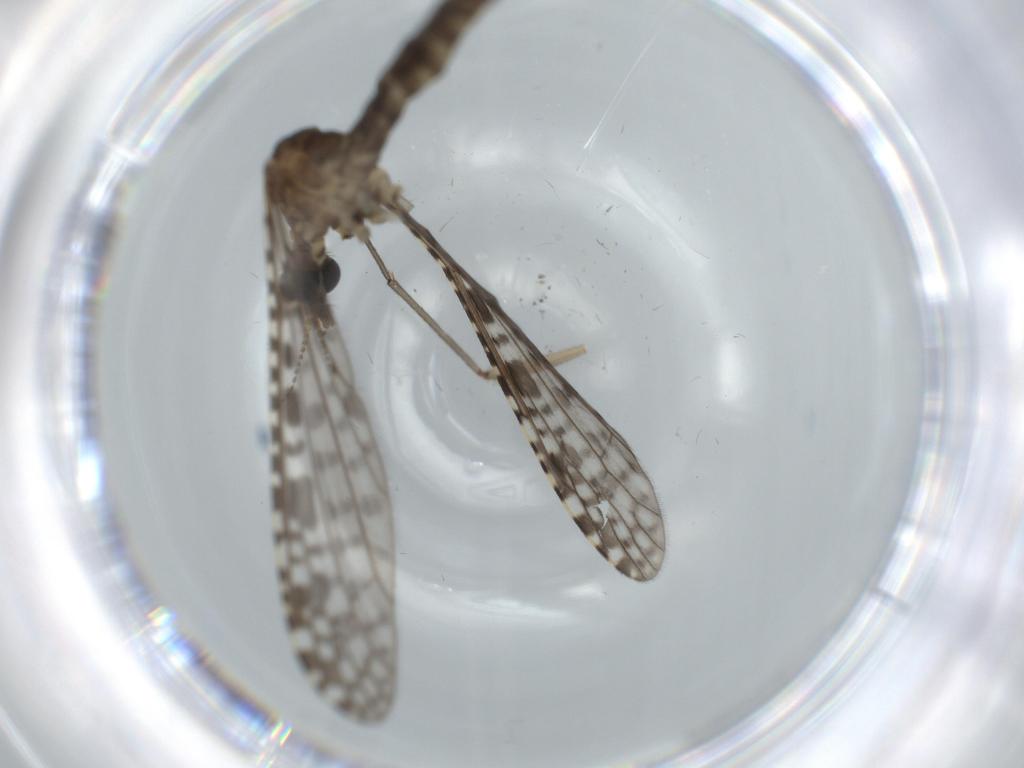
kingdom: Animalia
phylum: Arthropoda
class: Insecta
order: Diptera
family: Sciaridae
